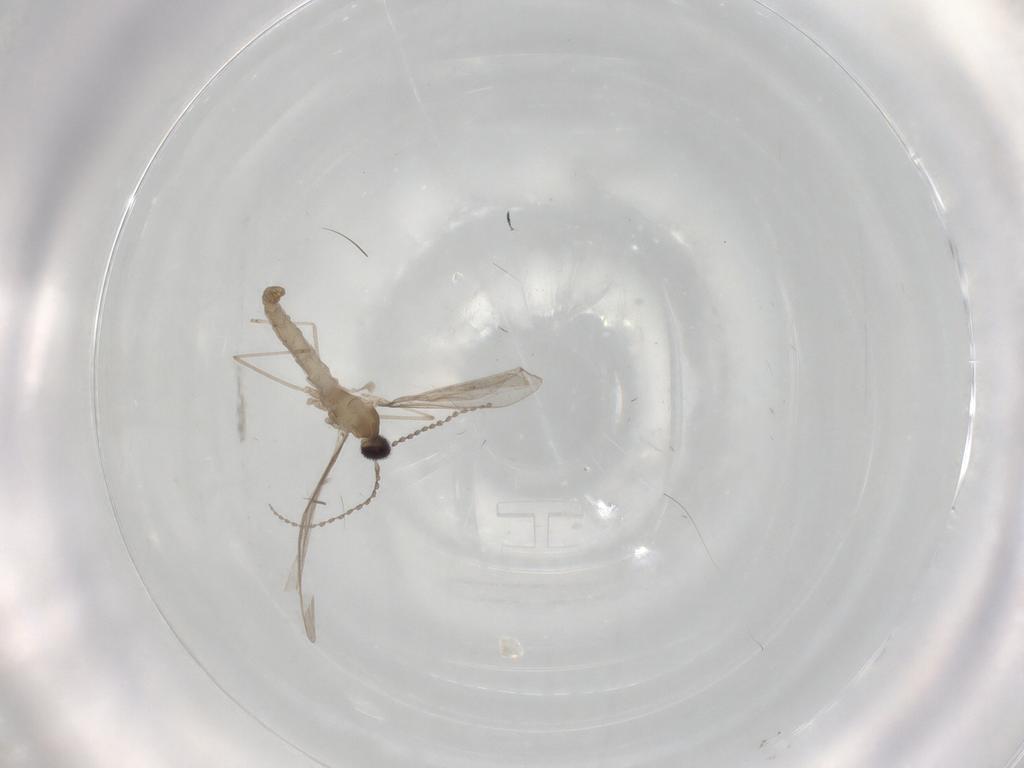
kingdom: Animalia
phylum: Arthropoda
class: Insecta
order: Diptera
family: Cecidomyiidae
